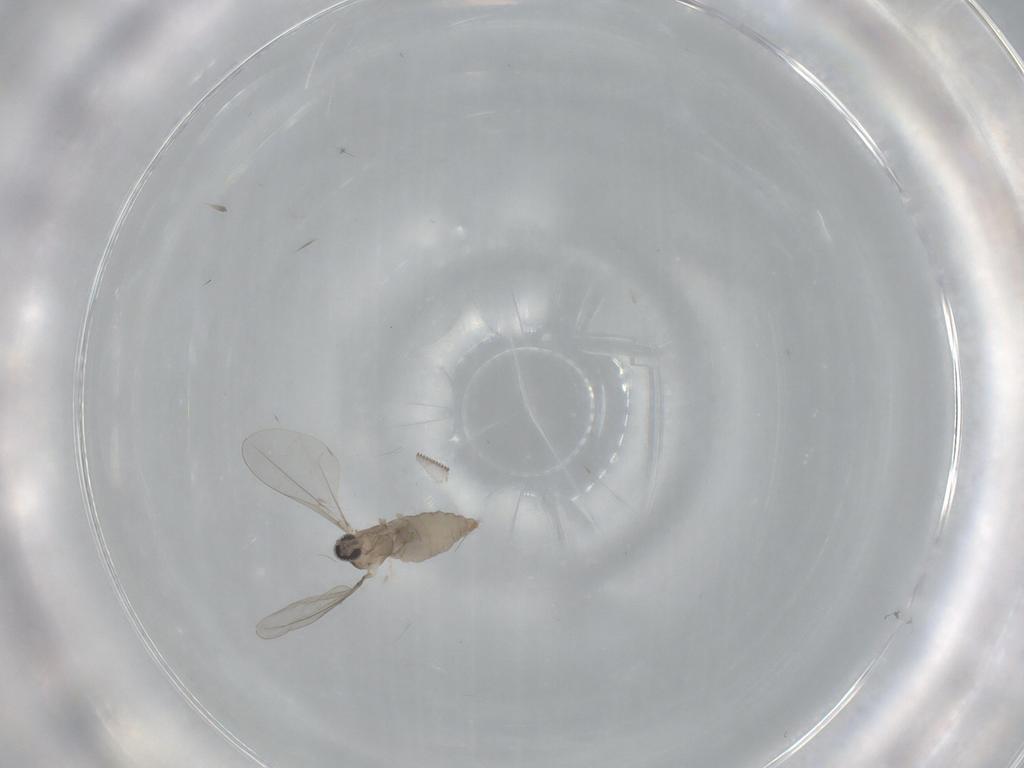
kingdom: Animalia
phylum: Arthropoda
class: Insecta
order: Diptera
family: Cecidomyiidae
